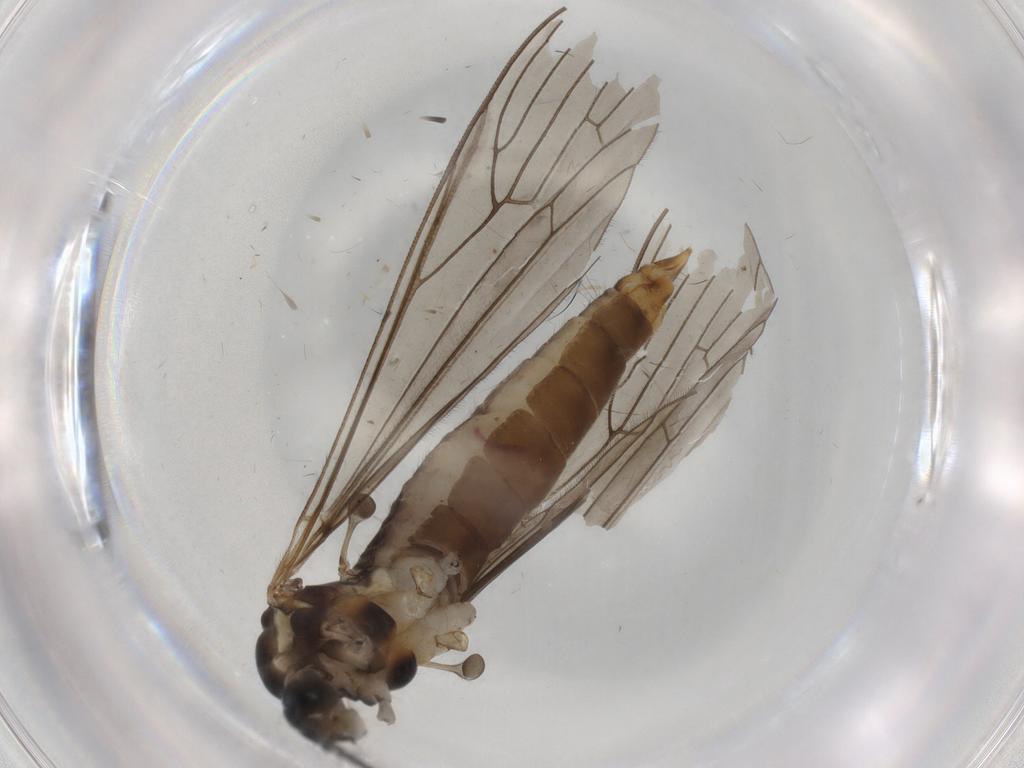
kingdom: Animalia
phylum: Arthropoda
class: Insecta
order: Diptera
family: Limoniidae
